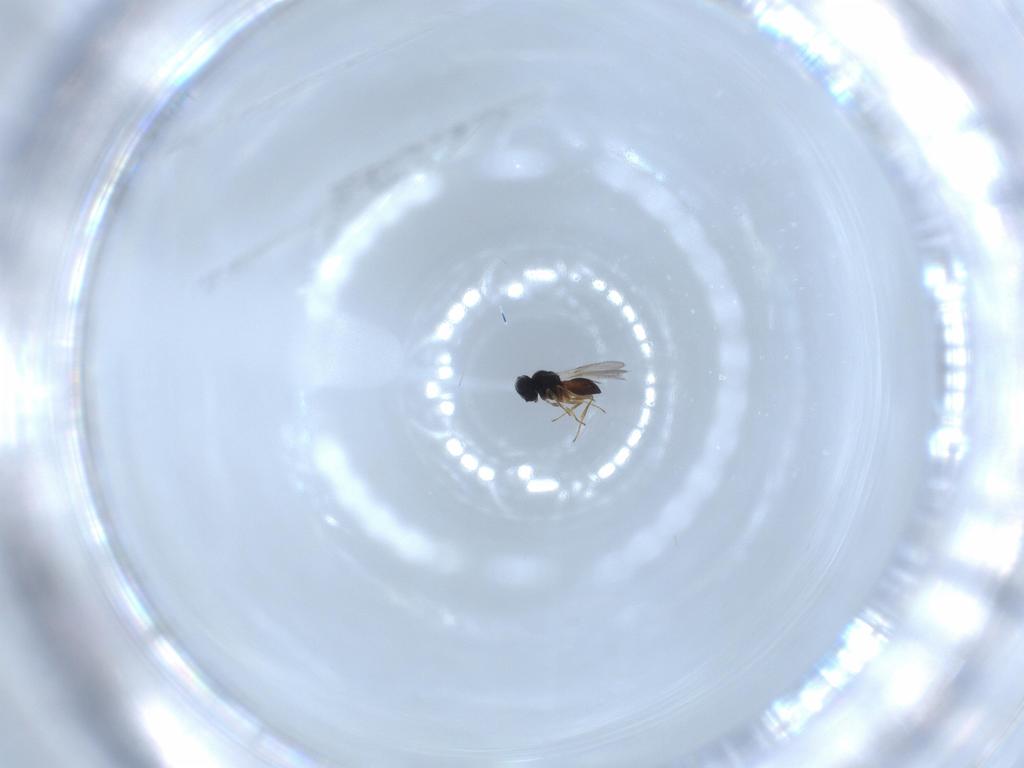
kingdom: Animalia
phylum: Arthropoda
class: Insecta
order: Hymenoptera
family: Scelionidae
